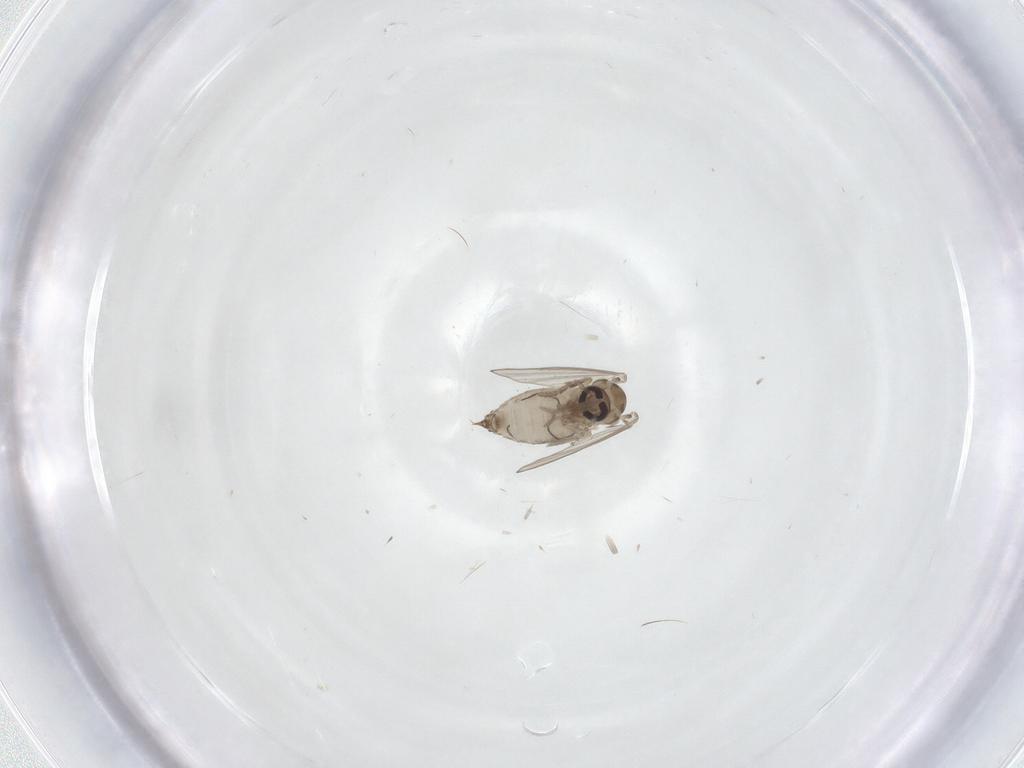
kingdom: Animalia
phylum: Arthropoda
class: Insecta
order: Diptera
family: Psychodidae
